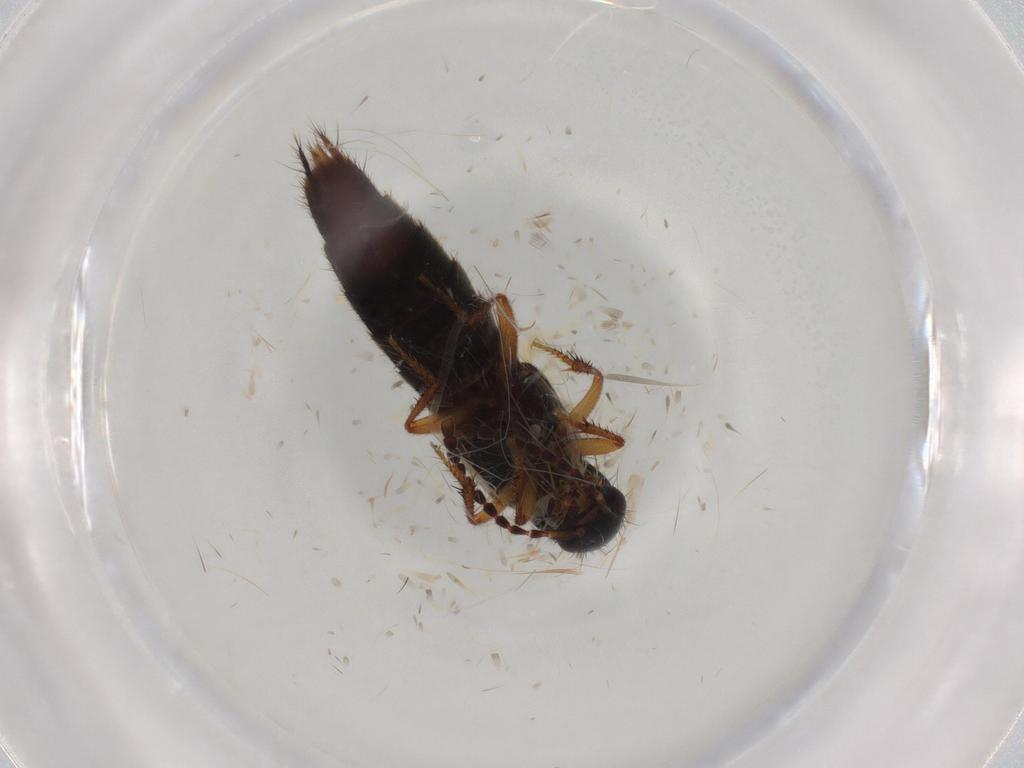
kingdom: Animalia
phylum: Arthropoda
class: Insecta
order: Coleoptera
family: Staphylinidae
